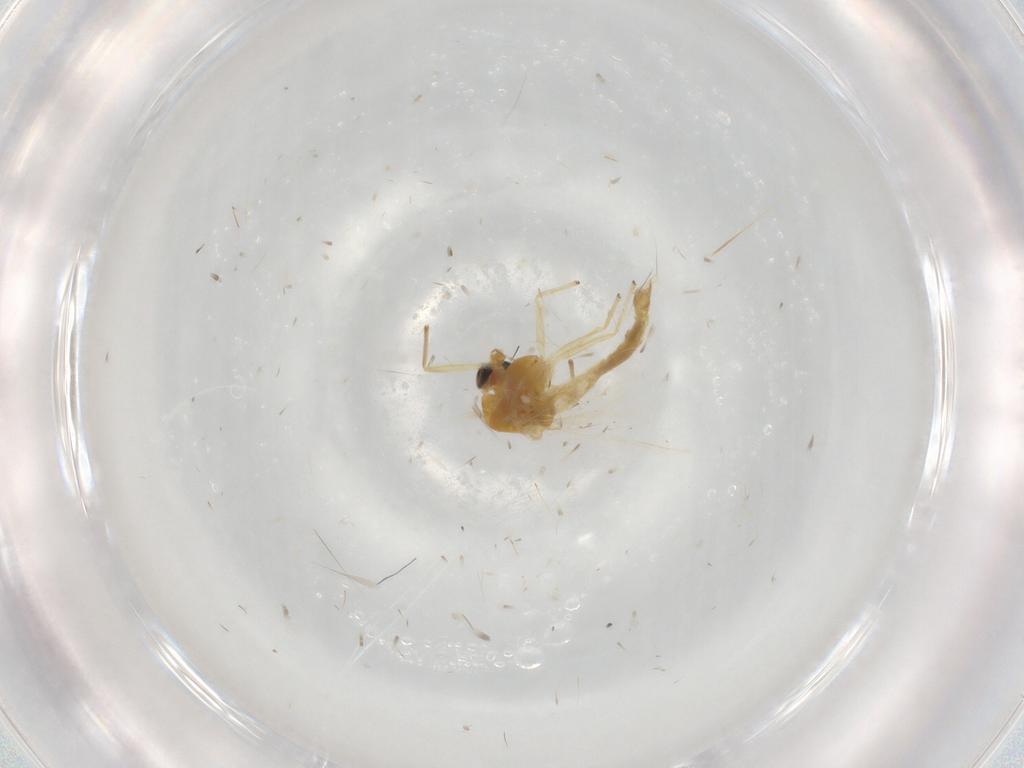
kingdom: Animalia
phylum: Arthropoda
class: Insecta
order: Diptera
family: Chironomidae
